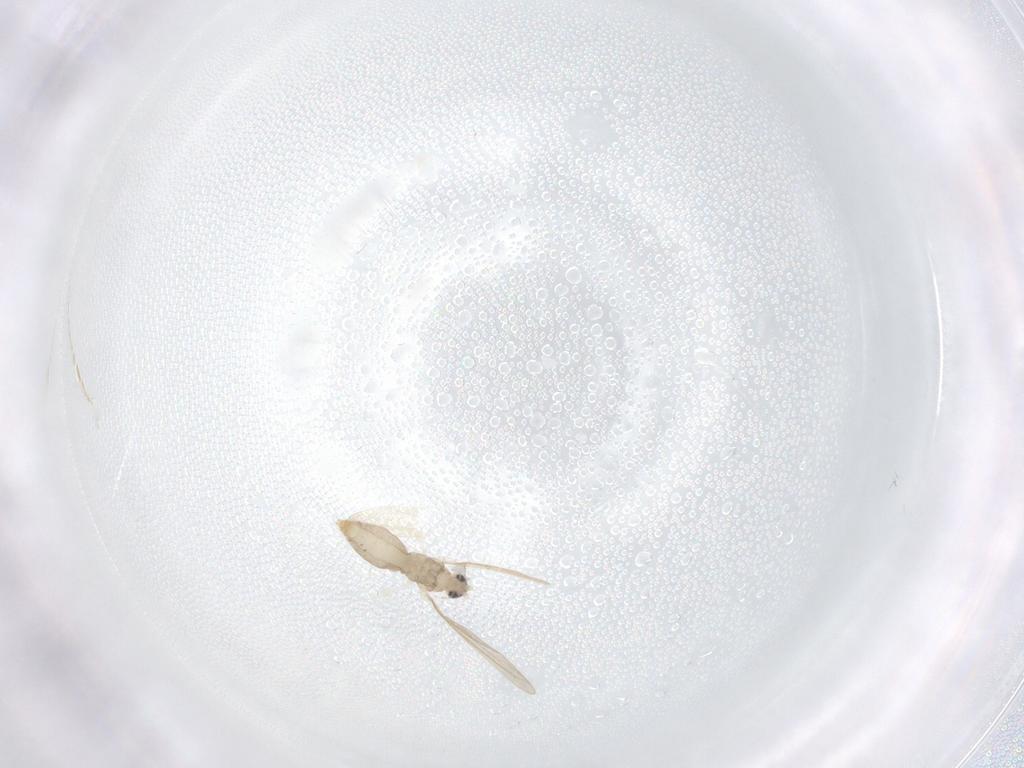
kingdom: Animalia
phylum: Arthropoda
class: Insecta
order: Diptera
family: Cecidomyiidae
